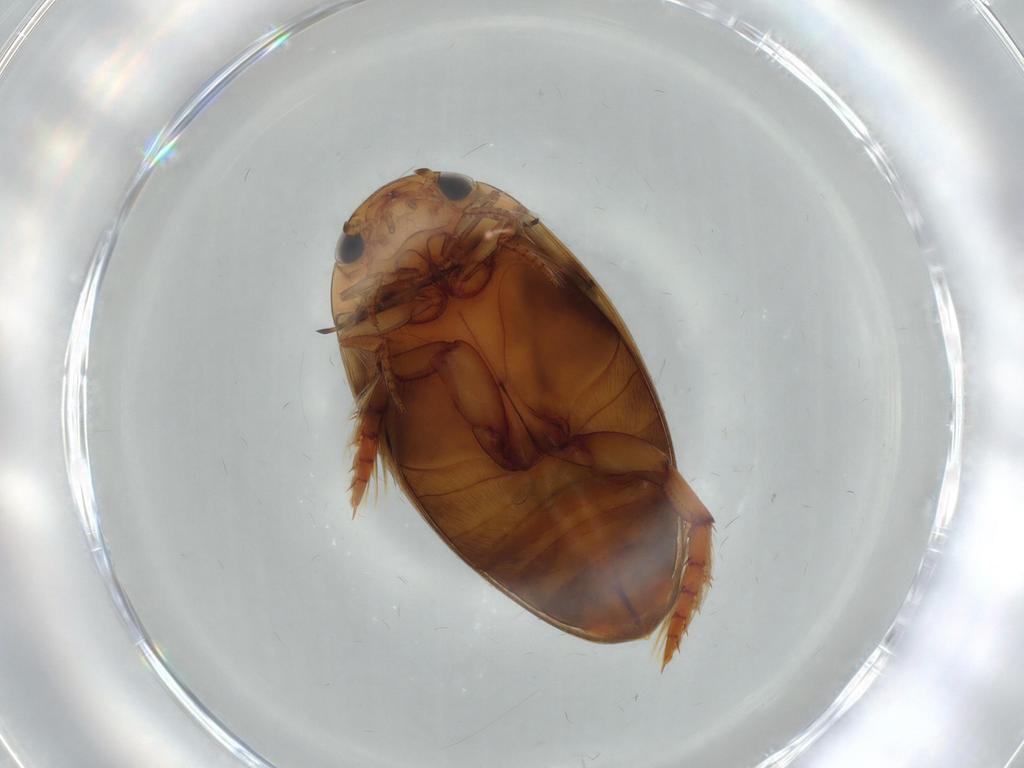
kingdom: Animalia
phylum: Arthropoda
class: Insecta
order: Coleoptera
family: Dytiscidae
